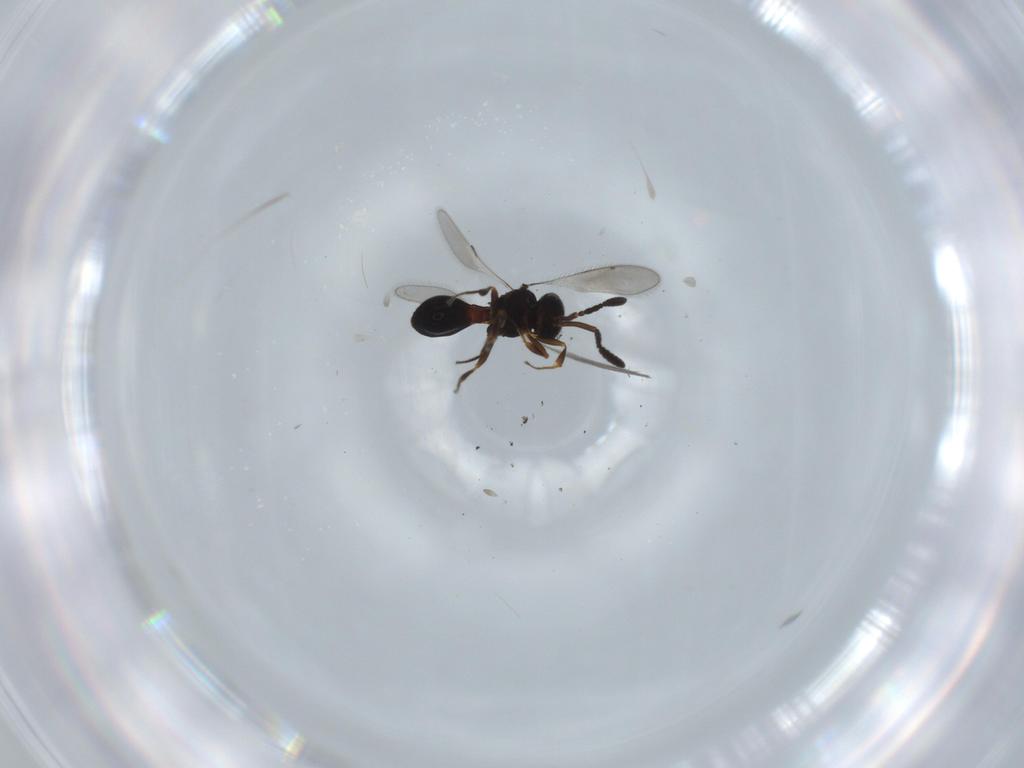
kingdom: Animalia
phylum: Arthropoda
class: Insecta
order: Hymenoptera
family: Scelionidae
